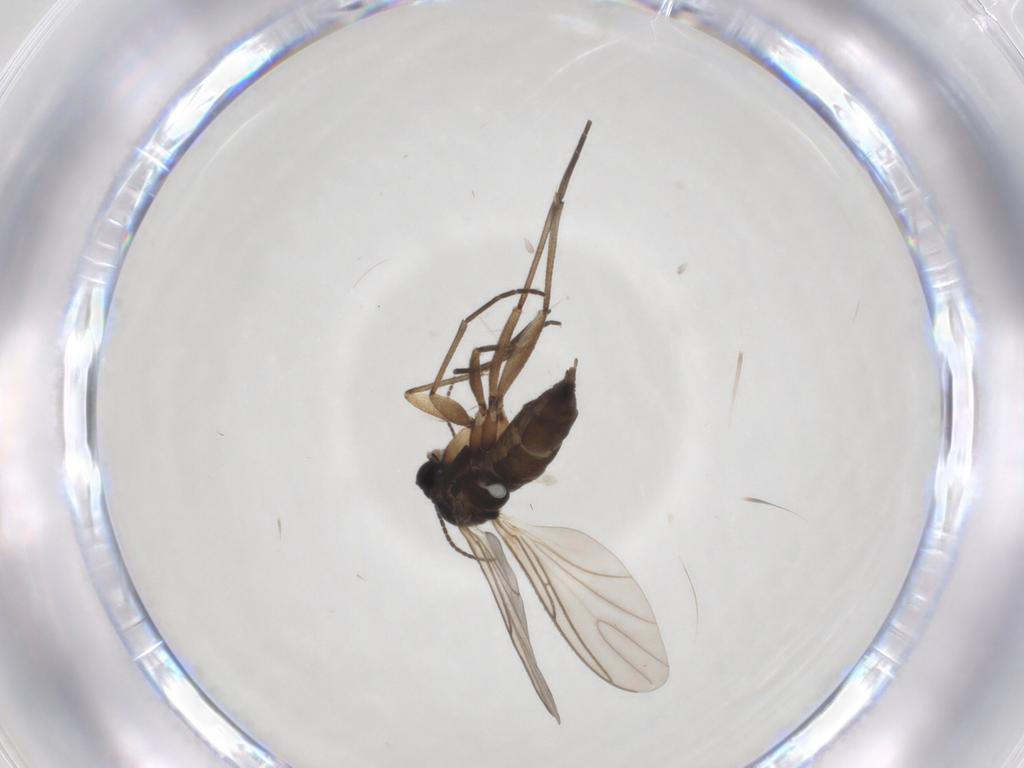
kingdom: Animalia
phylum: Arthropoda
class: Insecta
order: Diptera
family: Sciaridae
